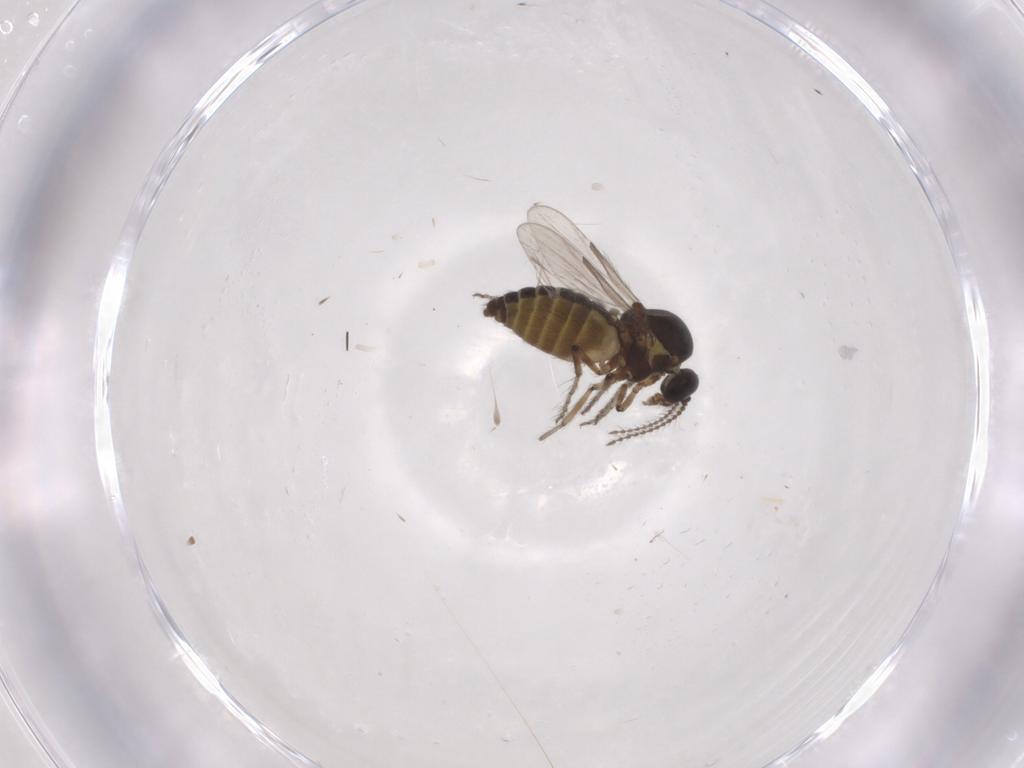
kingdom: Animalia
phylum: Arthropoda
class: Insecta
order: Diptera
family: Ceratopogonidae
